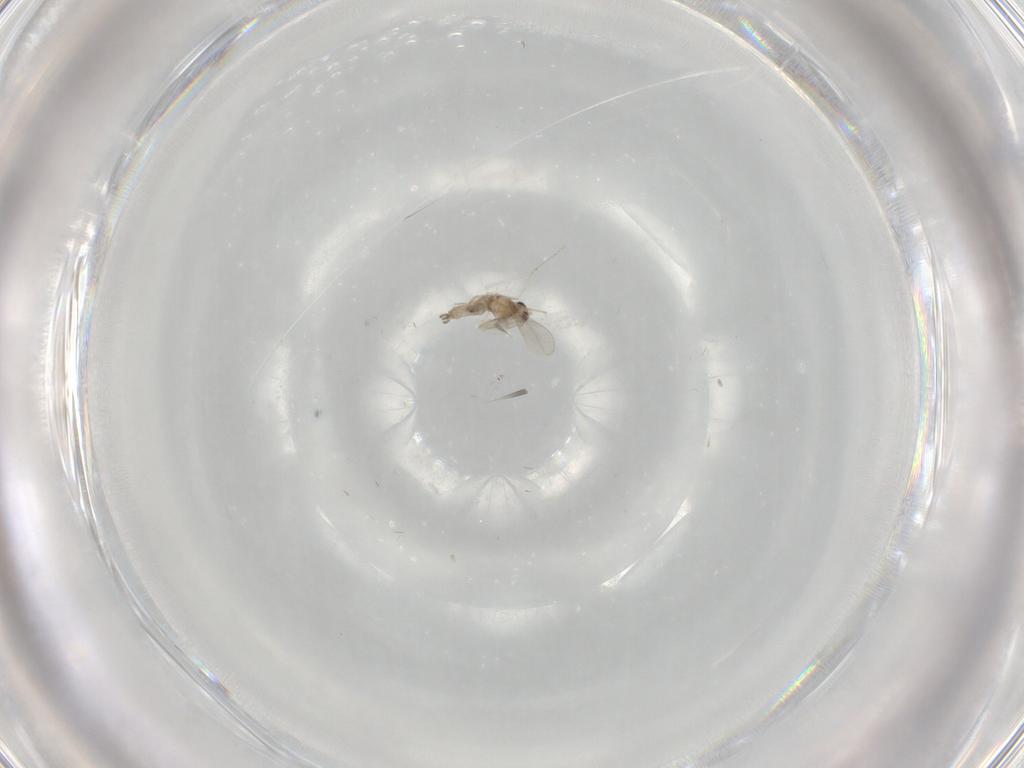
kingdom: Animalia
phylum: Arthropoda
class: Insecta
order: Diptera
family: Cecidomyiidae
